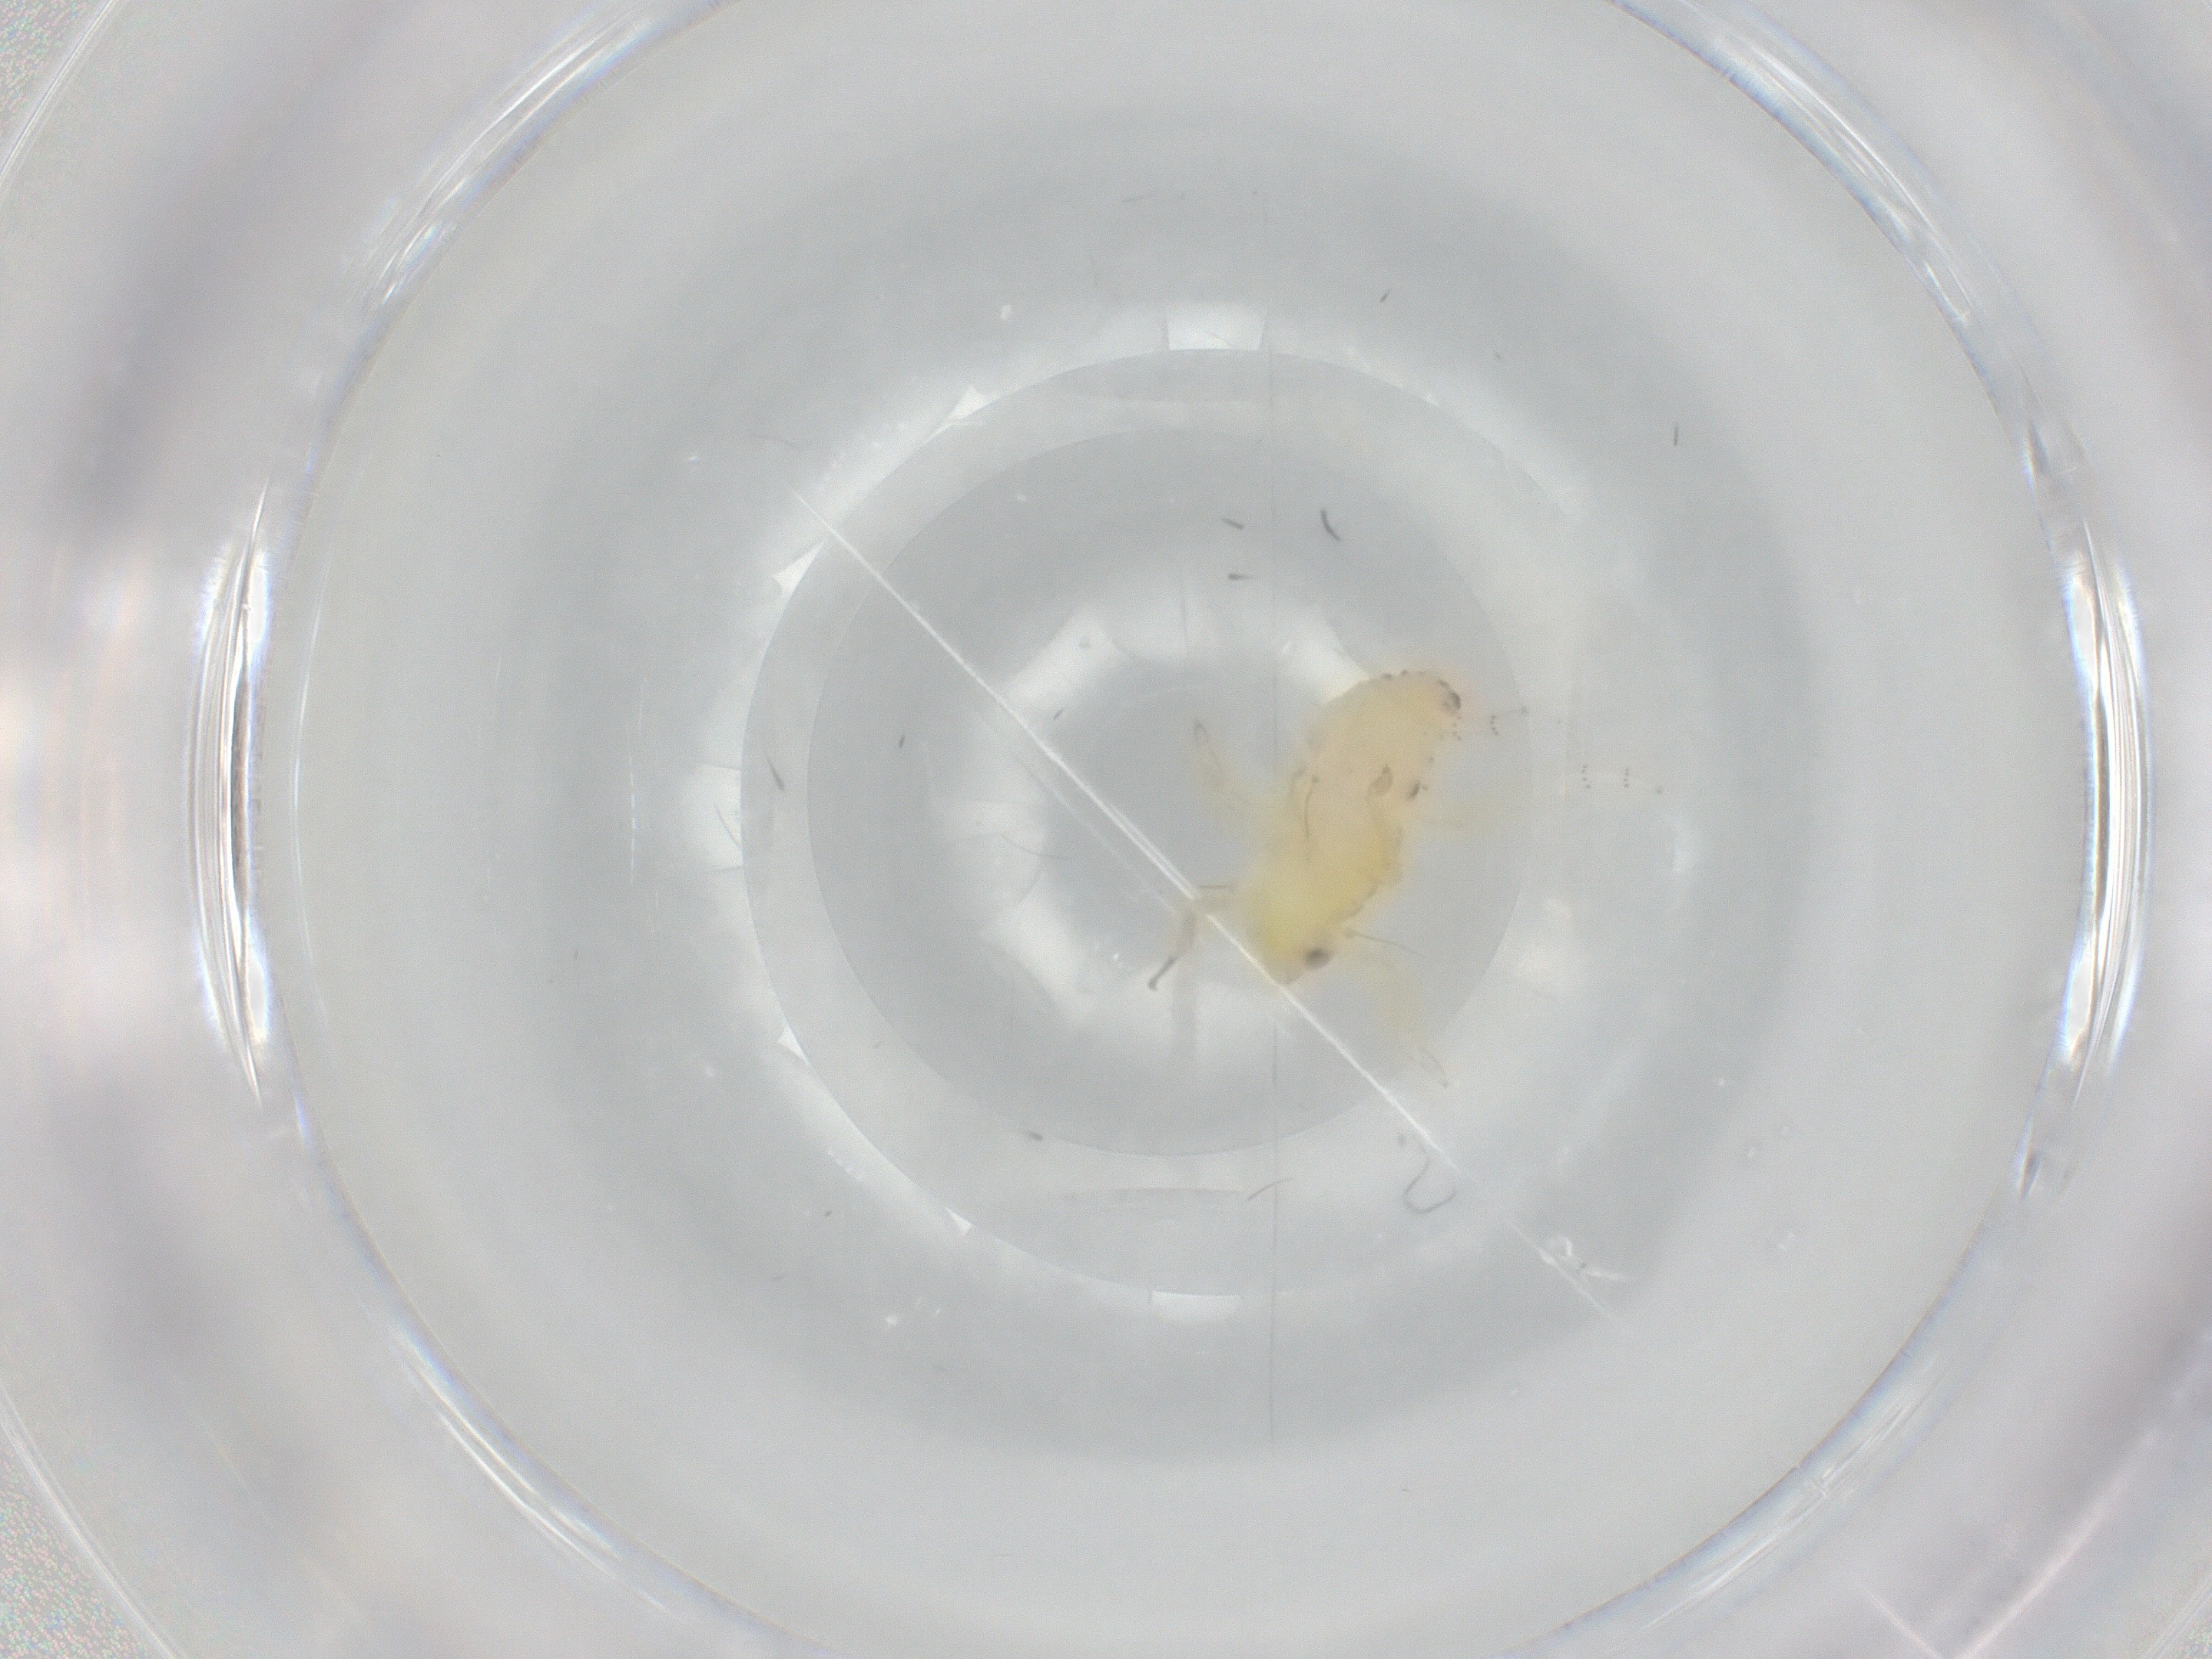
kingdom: Animalia
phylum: Arthropoda
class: Insecta
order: Hemiptera
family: Tropiduchidae
